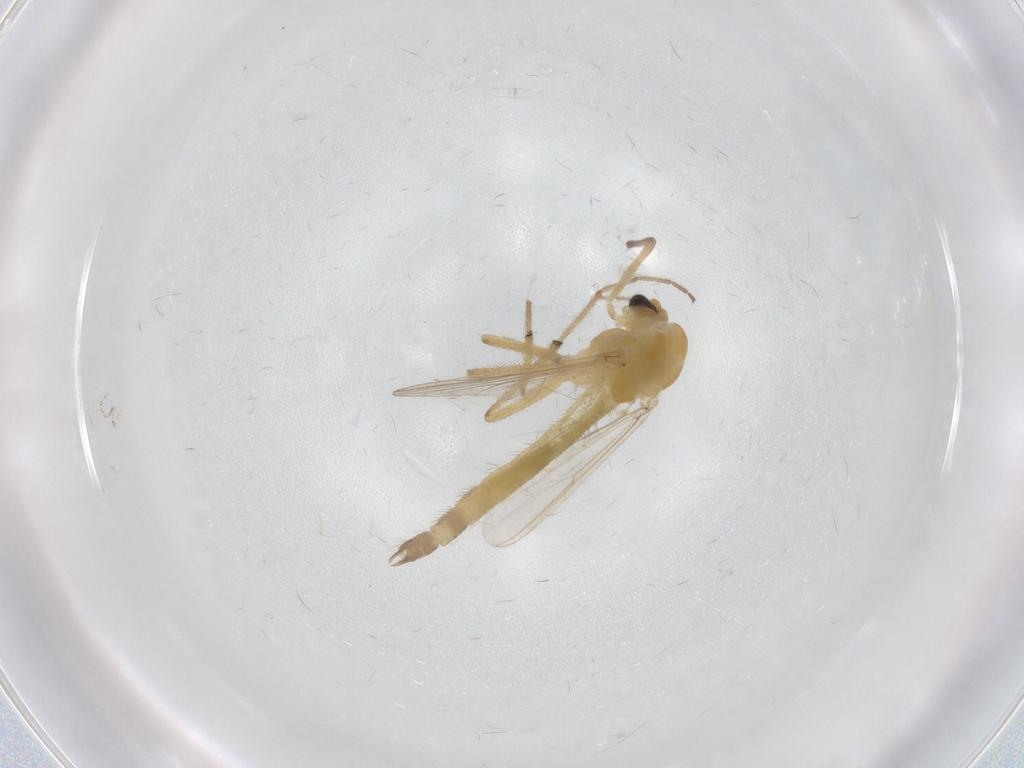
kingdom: Animalia
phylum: Arthropoda
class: Insecta
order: Diptera
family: Chironomidae
